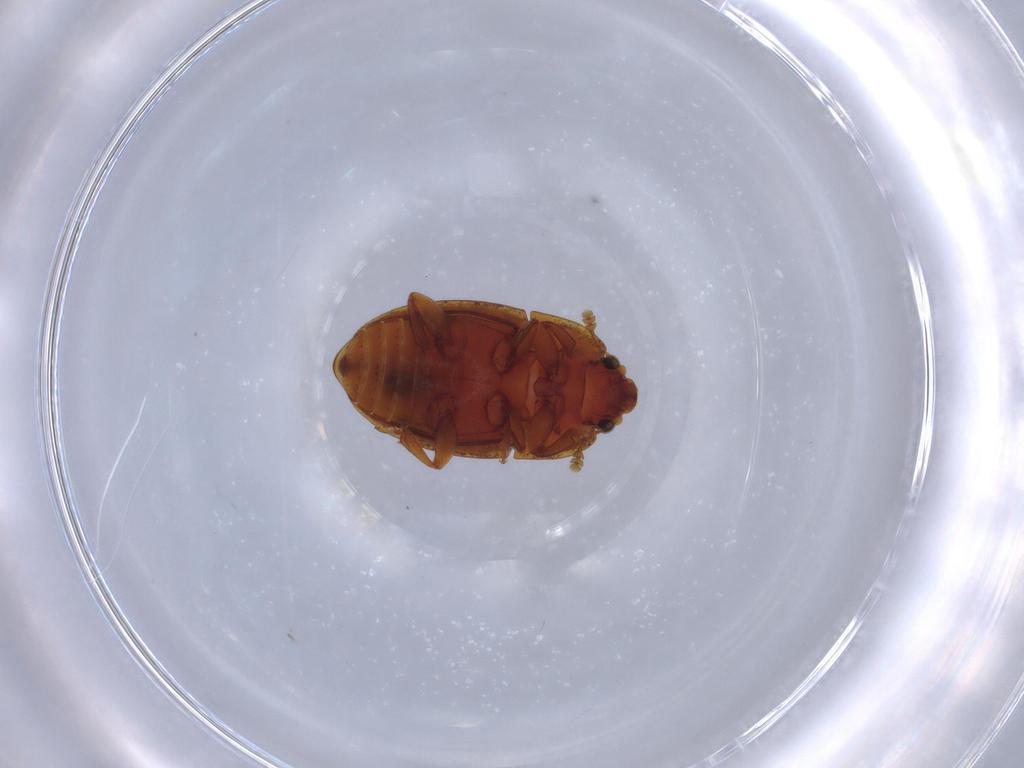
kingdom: Animalia
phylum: Arthropoda
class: Insecta
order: Coleoptera
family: Nitidulidae
